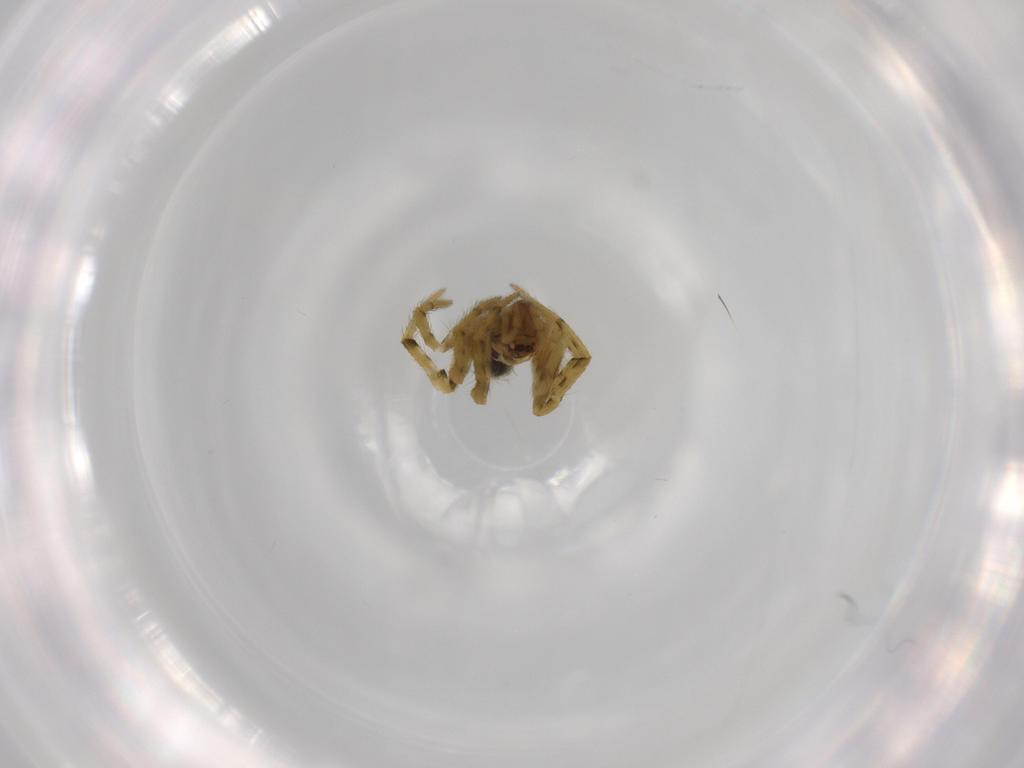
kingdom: Animalia
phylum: Arthropoda
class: Arachnida
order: Araneae
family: Theridiidae
